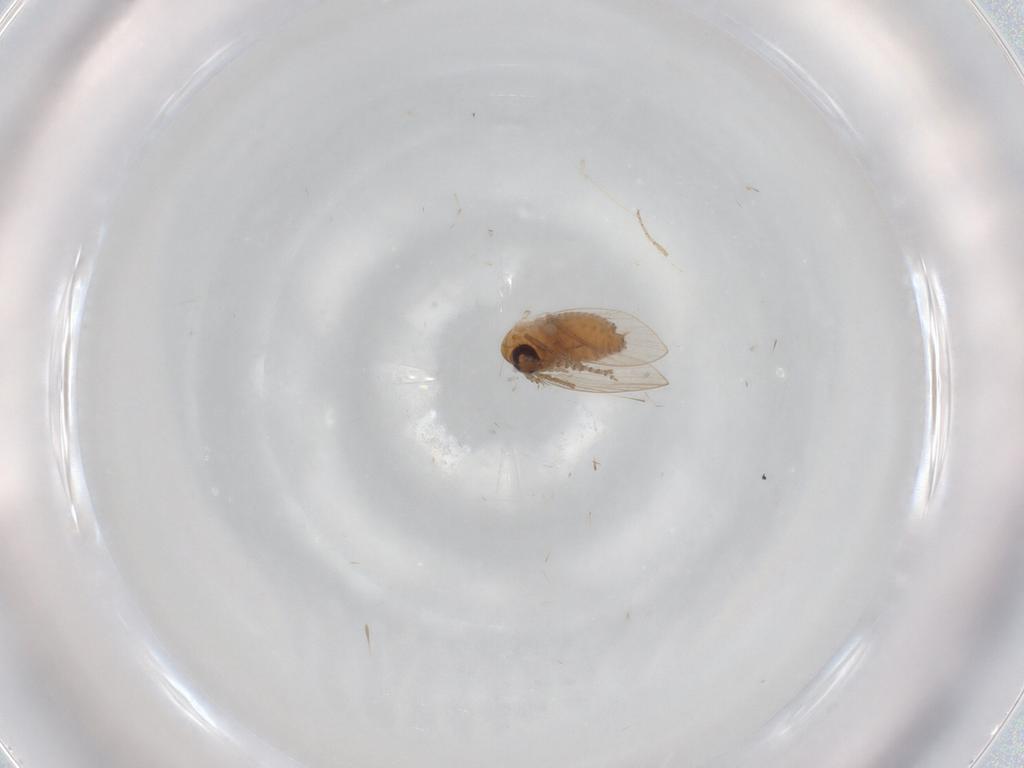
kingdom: Animalia
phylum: Arthropoda
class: Insecta
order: Diptera
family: Psychodidae
